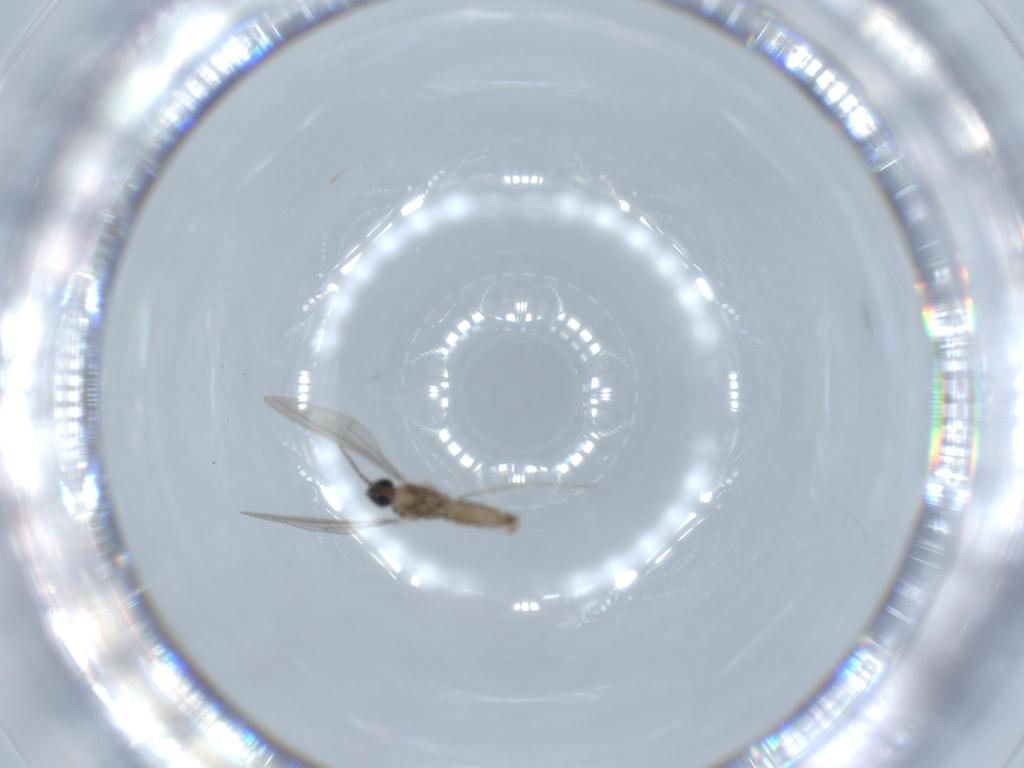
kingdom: Animalia
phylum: Arthropoda
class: Insecta
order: Diptera
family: Cecidomyiidae
